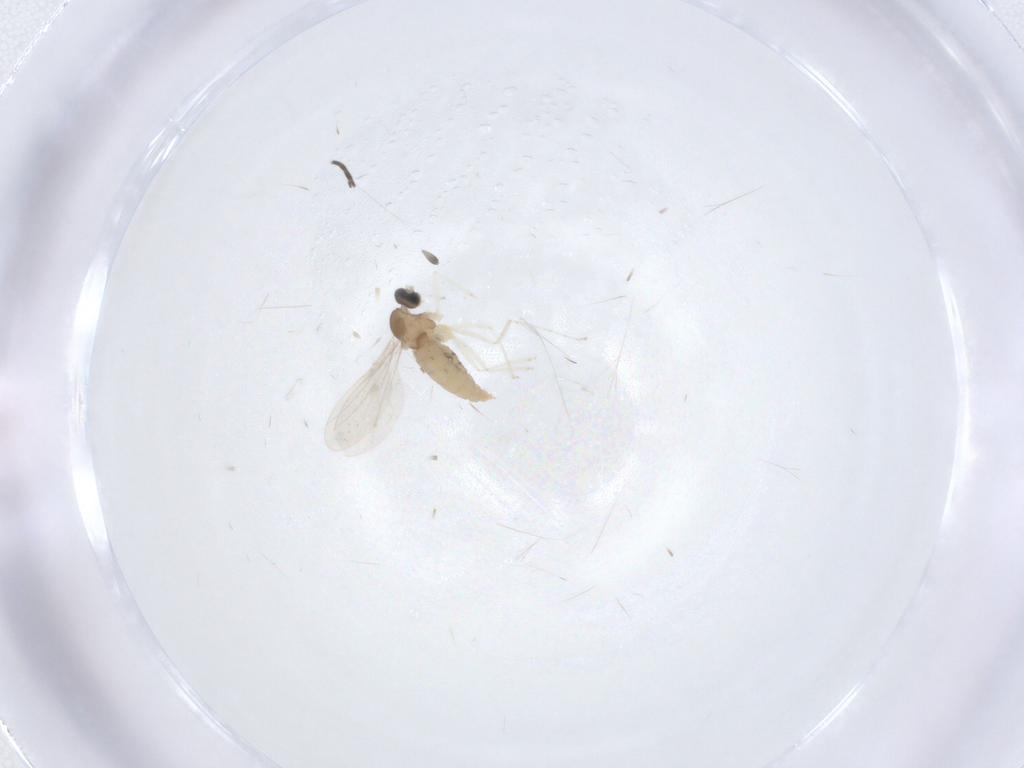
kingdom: Animalia
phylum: Arthropoda
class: Insecta
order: Diptera
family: Cecidomyiidae
